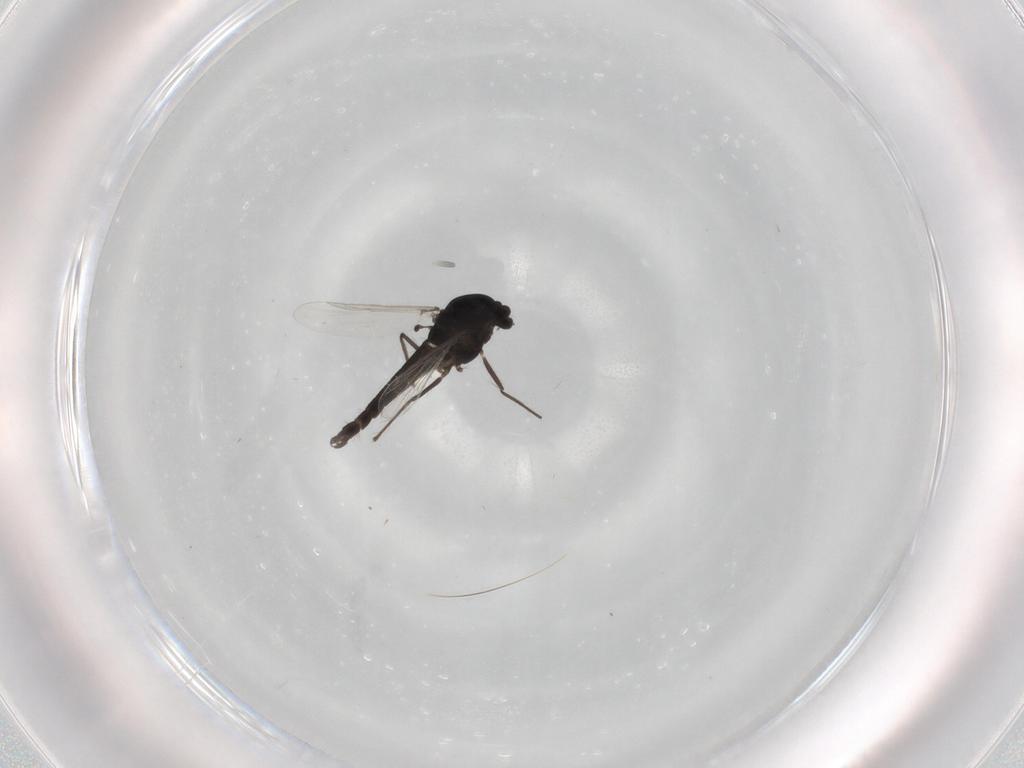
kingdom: Animalia
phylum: Arthropoda
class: Insecta
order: Diptera
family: Chironomidae
